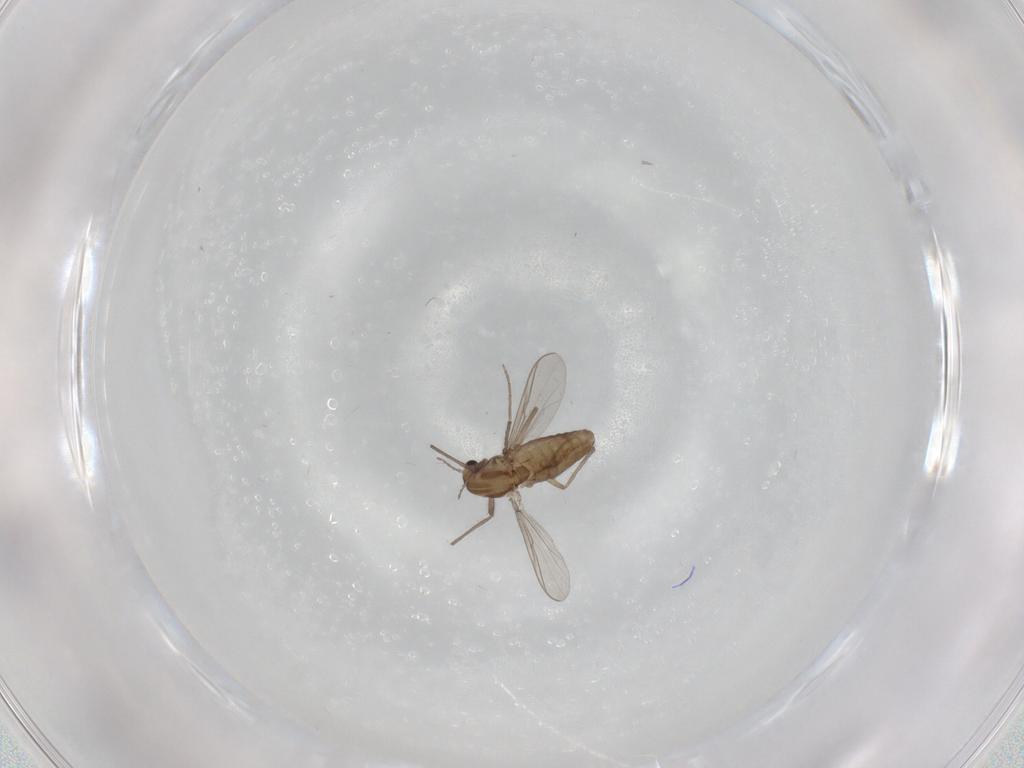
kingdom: Animalia
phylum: Arthropoda
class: Insecta
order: Diptera
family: Chironomidae
